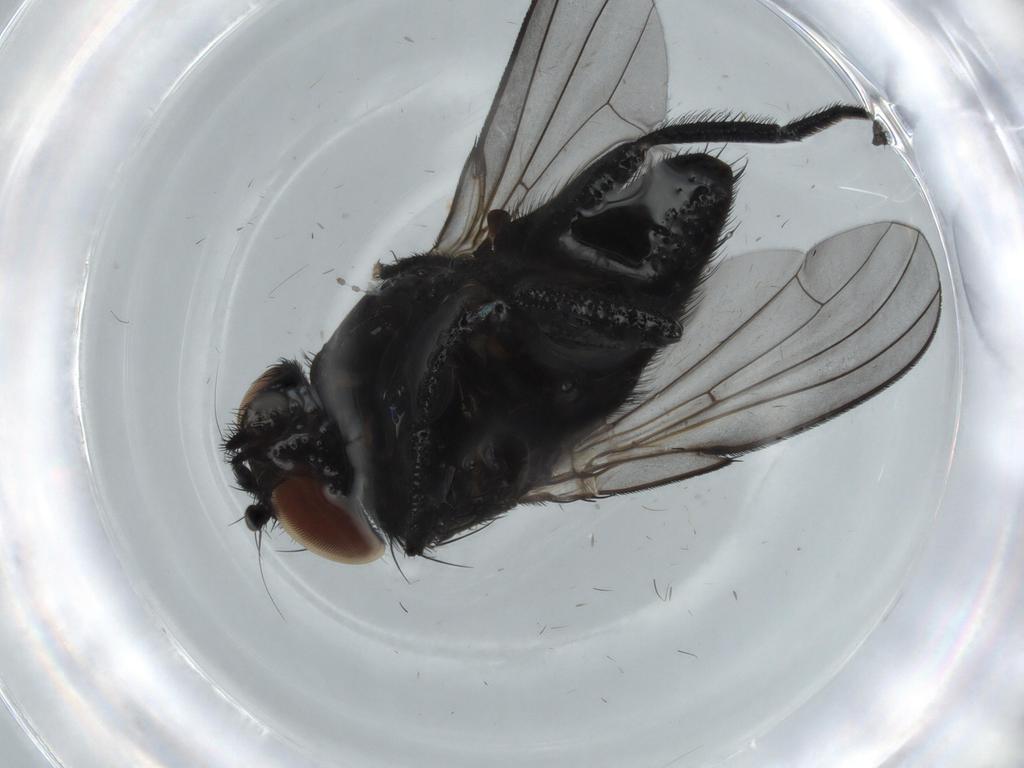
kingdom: Animalia
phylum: Arthropoda
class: Insecta
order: Diptera
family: Milichiidae
